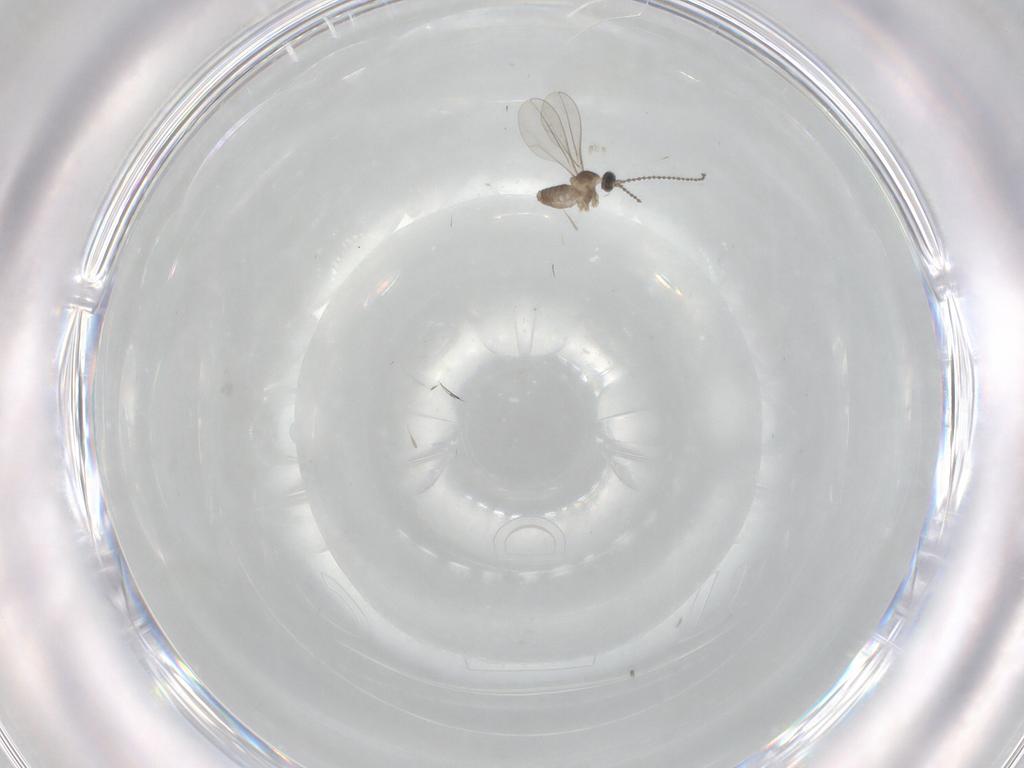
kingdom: Animalia
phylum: Arthropoda
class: Insecta
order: Diptera
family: Cecidomyiidae
